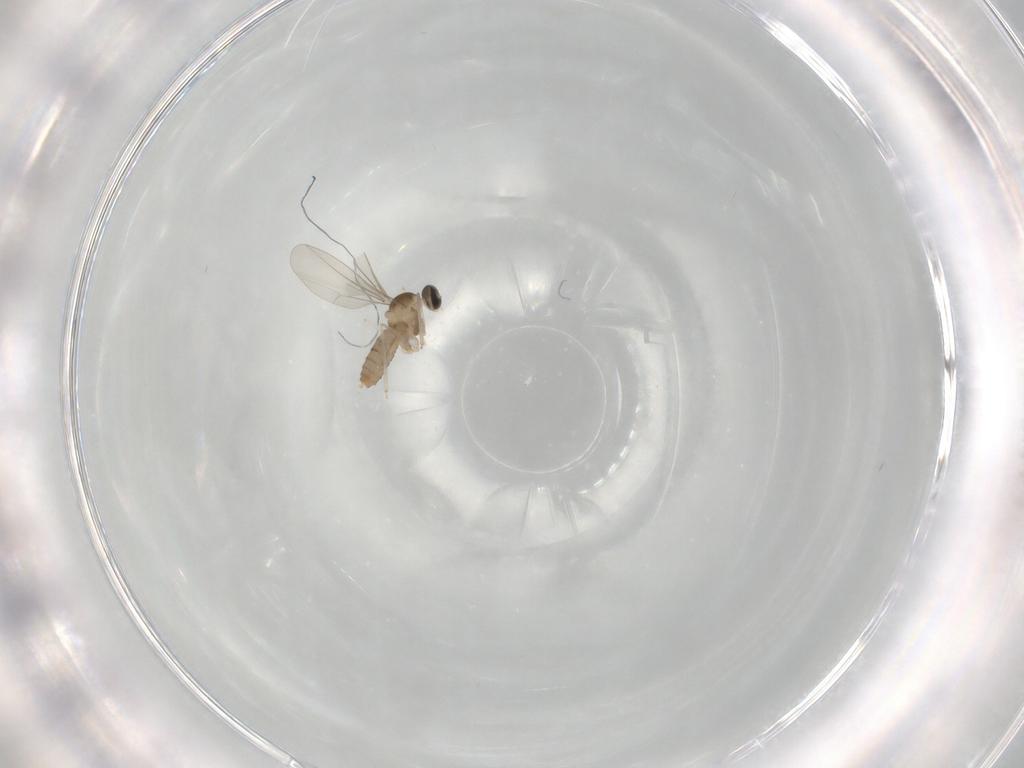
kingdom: Animalia
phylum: Arthropoda
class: Insecta
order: Diptera
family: Cecidomyiidae
